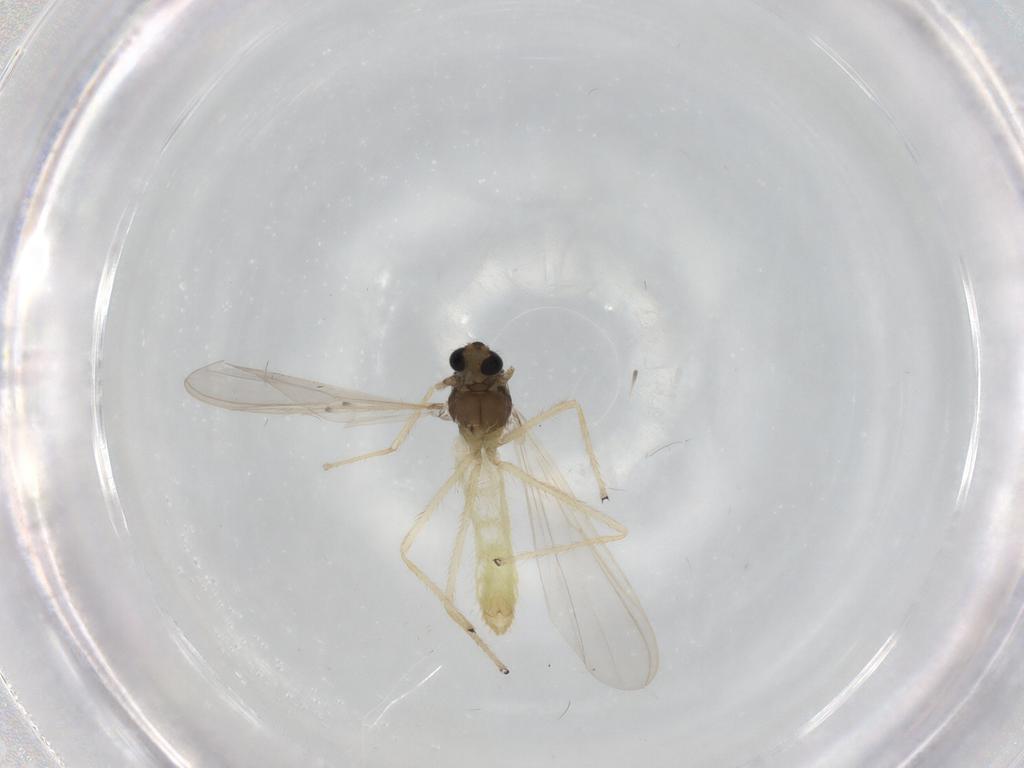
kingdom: Animalia
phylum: Arthropoda
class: Insecta
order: Diptera
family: Chironomidae
